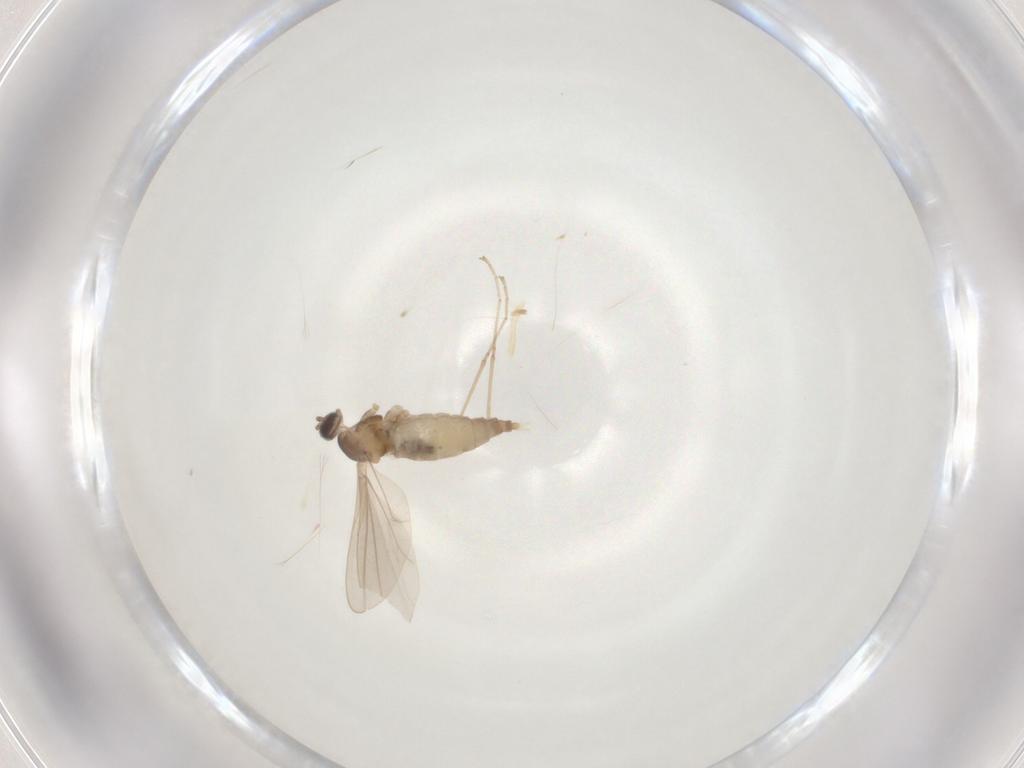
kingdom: Animalia
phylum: Arthropoda
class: Insecta
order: Diptera
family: Cecidomyiidae
